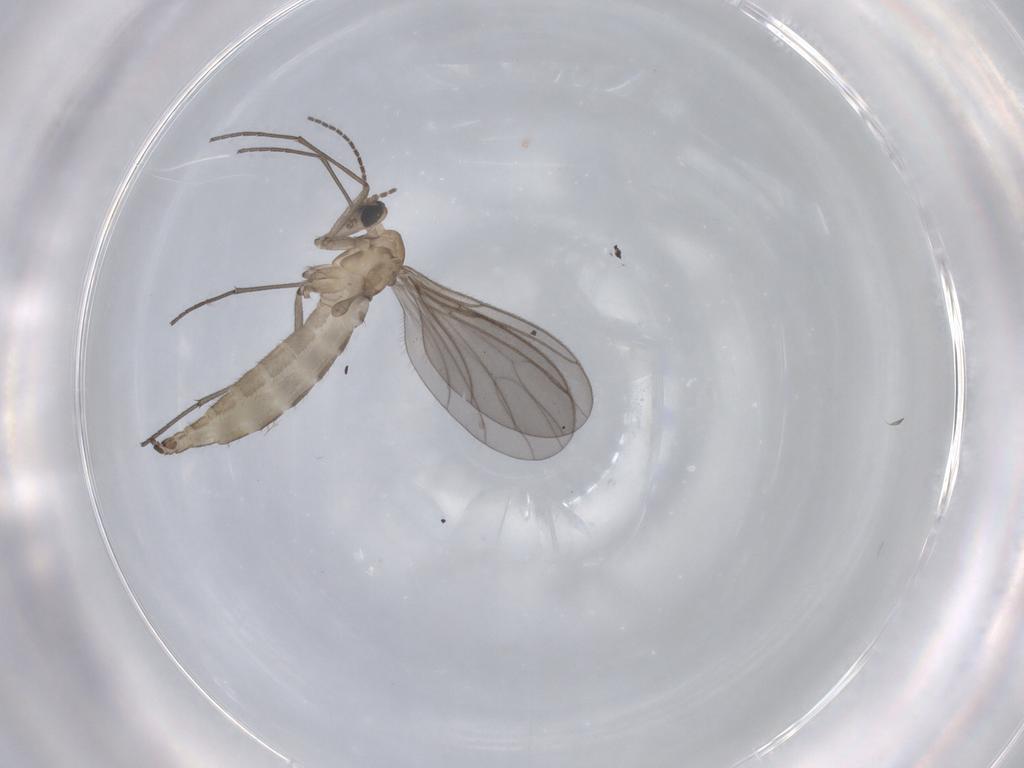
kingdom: Animalia
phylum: Arthropoda
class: Insecta
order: Diptera
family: Sciaridae
